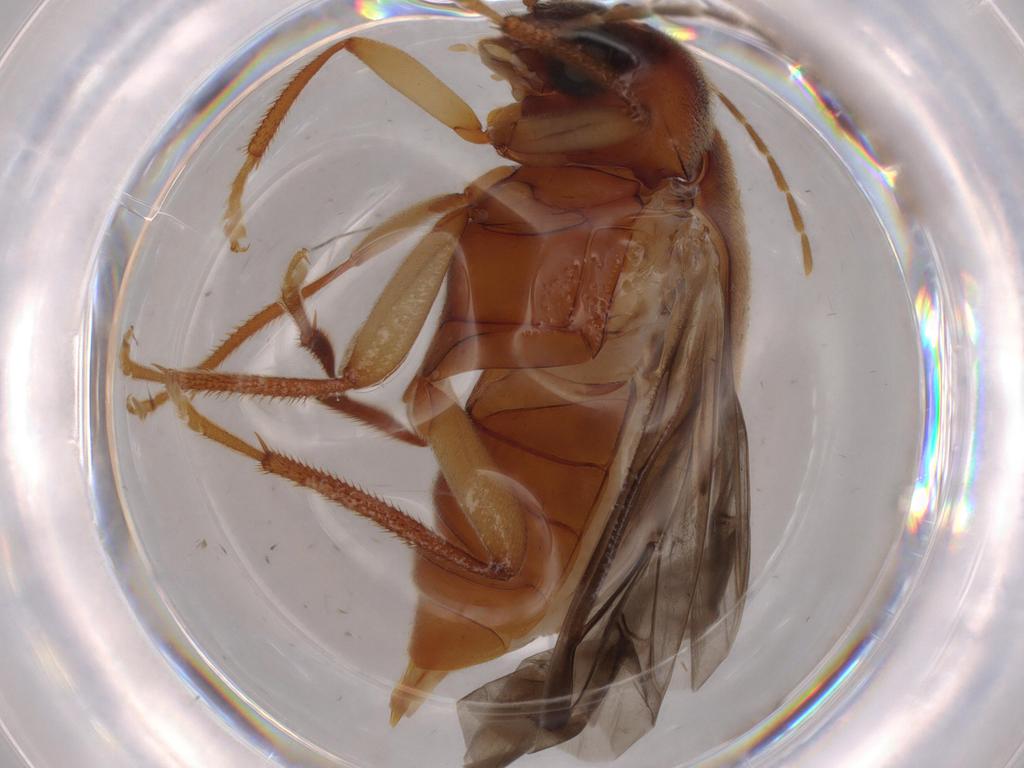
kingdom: Animalia
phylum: Arthropoda
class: Insecta
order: Coleoptera
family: Ptilodactylidae
